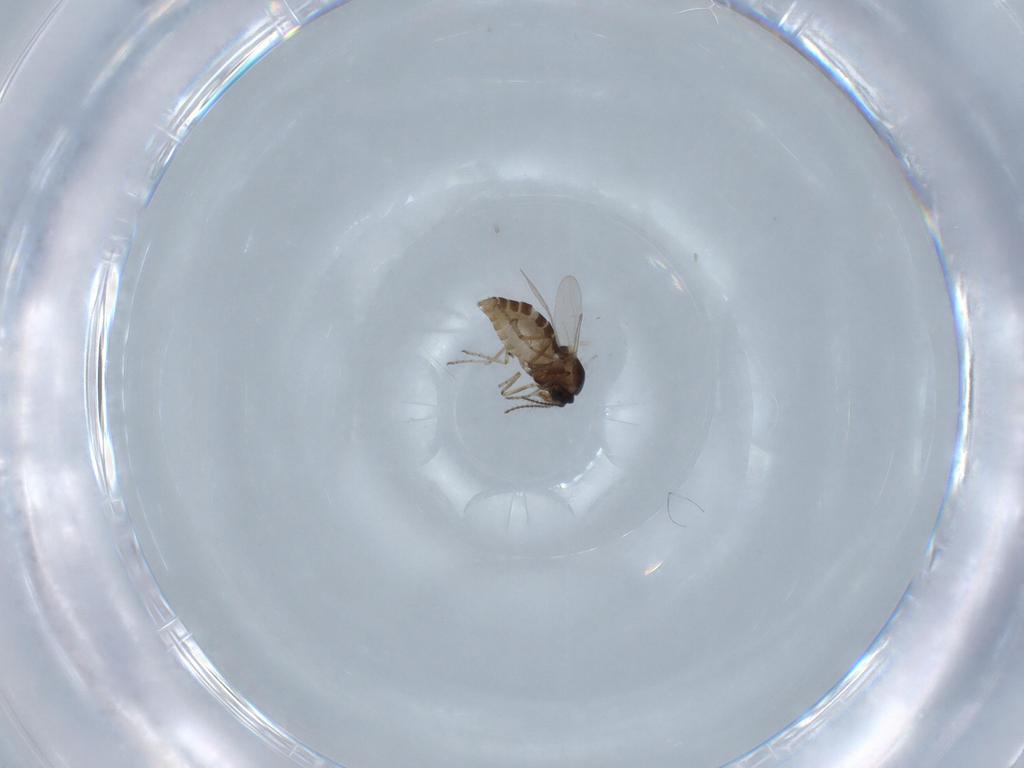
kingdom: Animalia
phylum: Arthropoda
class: Insecta
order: Diptera
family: Ceratopogonidae
